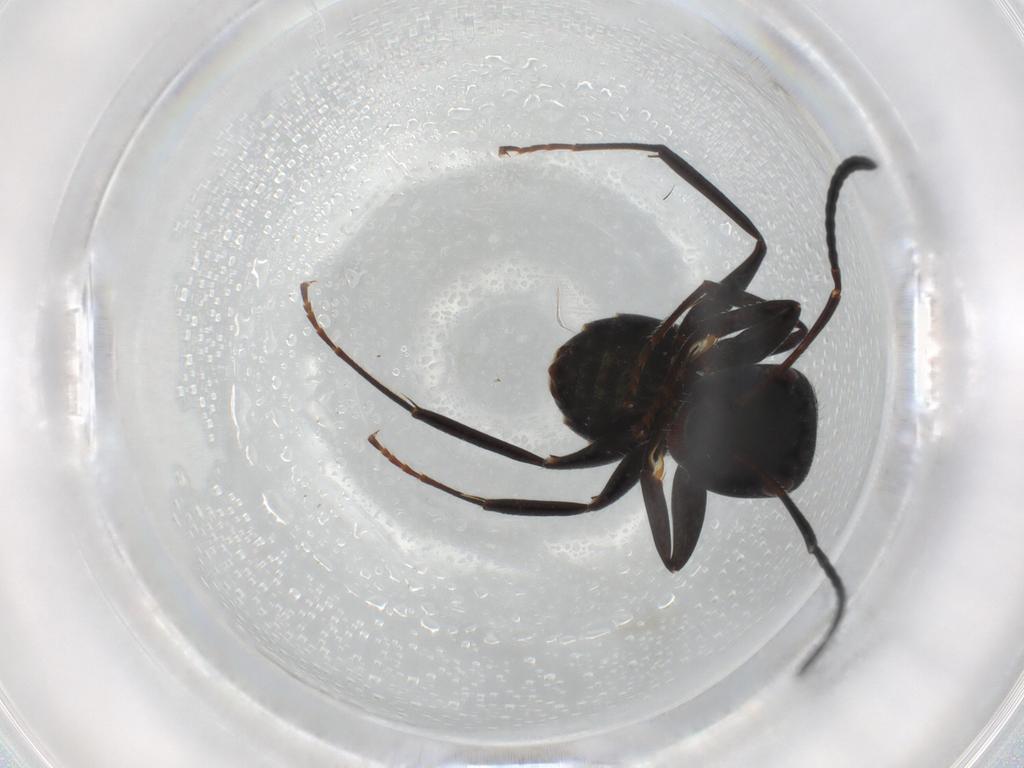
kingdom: Animalia
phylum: Arthropoda
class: Insecta
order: Hymenoptera
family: Formicidae
